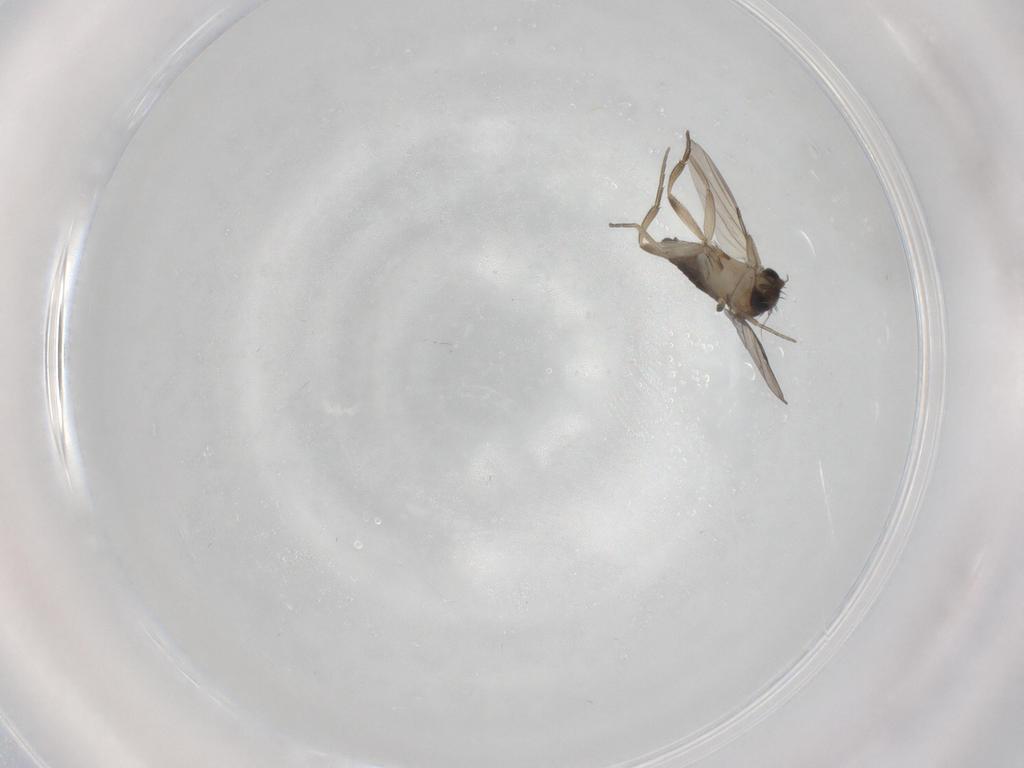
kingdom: Animalia
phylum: Arthropoda
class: Insecta
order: Diptera
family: Phoridae
